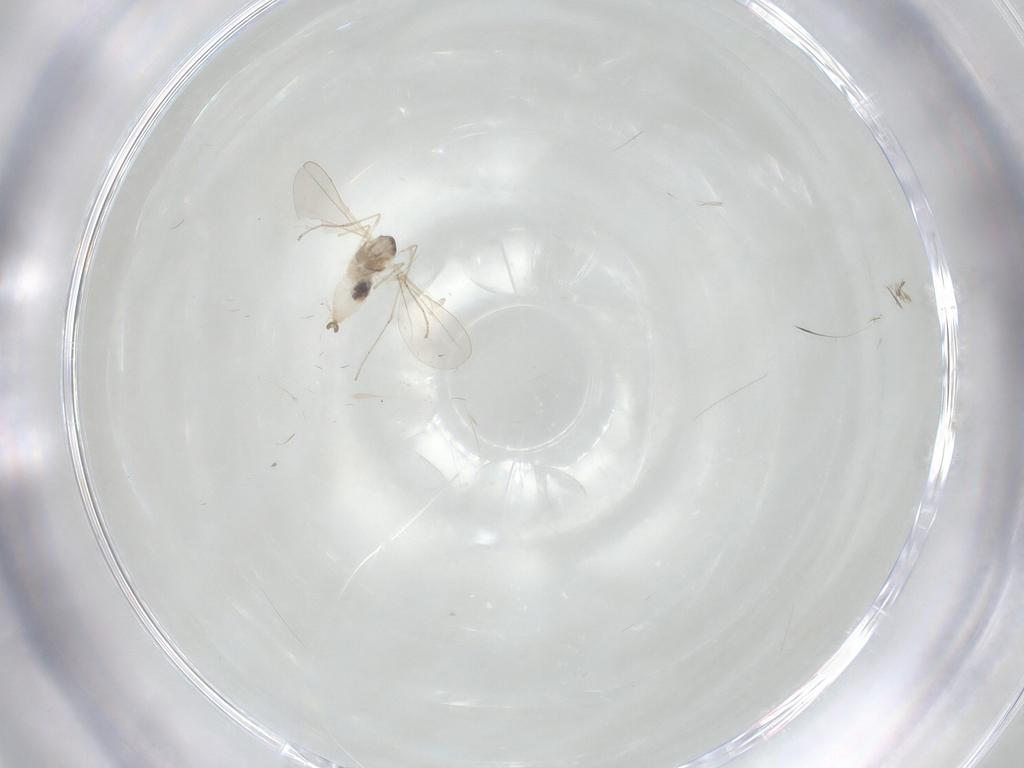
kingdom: Animalia
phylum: Arthropoda
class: Insecta
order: Diptera
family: Cecidomyiidae
